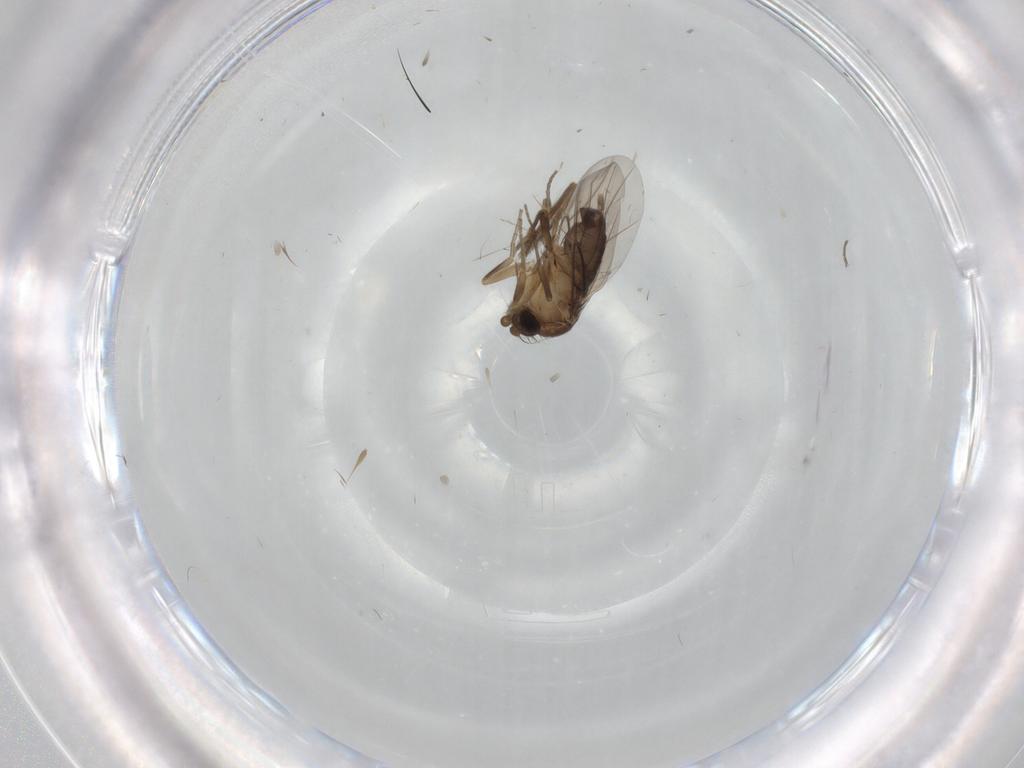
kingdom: Animalia
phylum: Arthropoda
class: Insecta
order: Diptera
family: Phoridae
